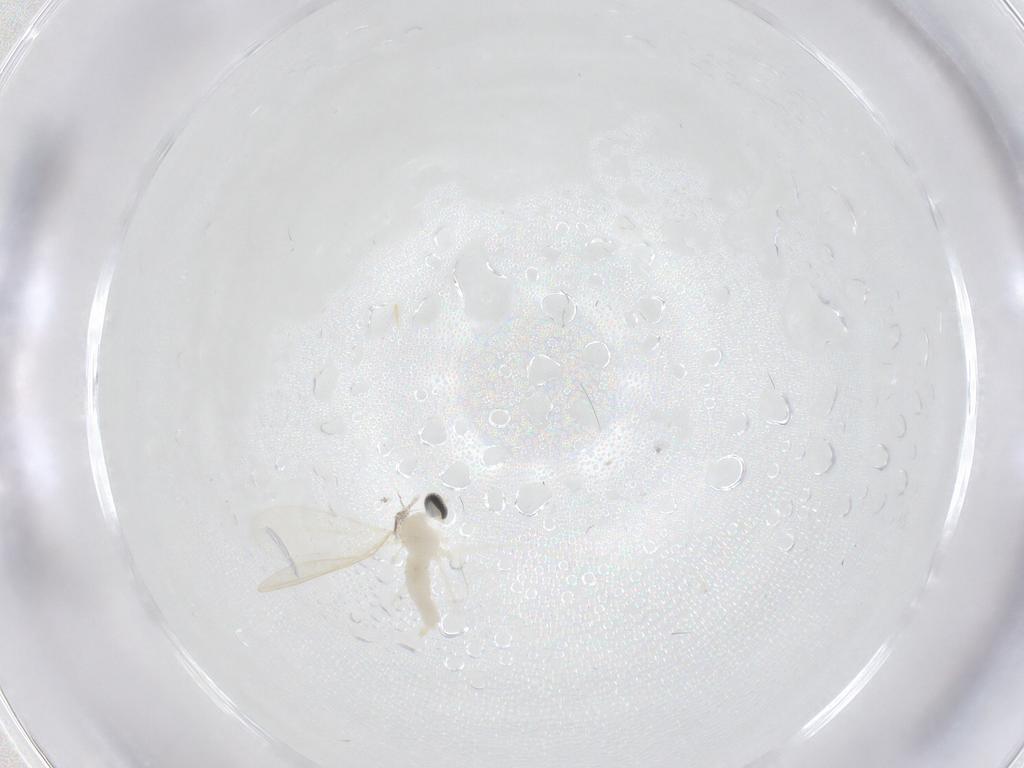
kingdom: Animalia
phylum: Arthropoda
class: Insecta
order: Diptera
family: Cecidomyiidae
